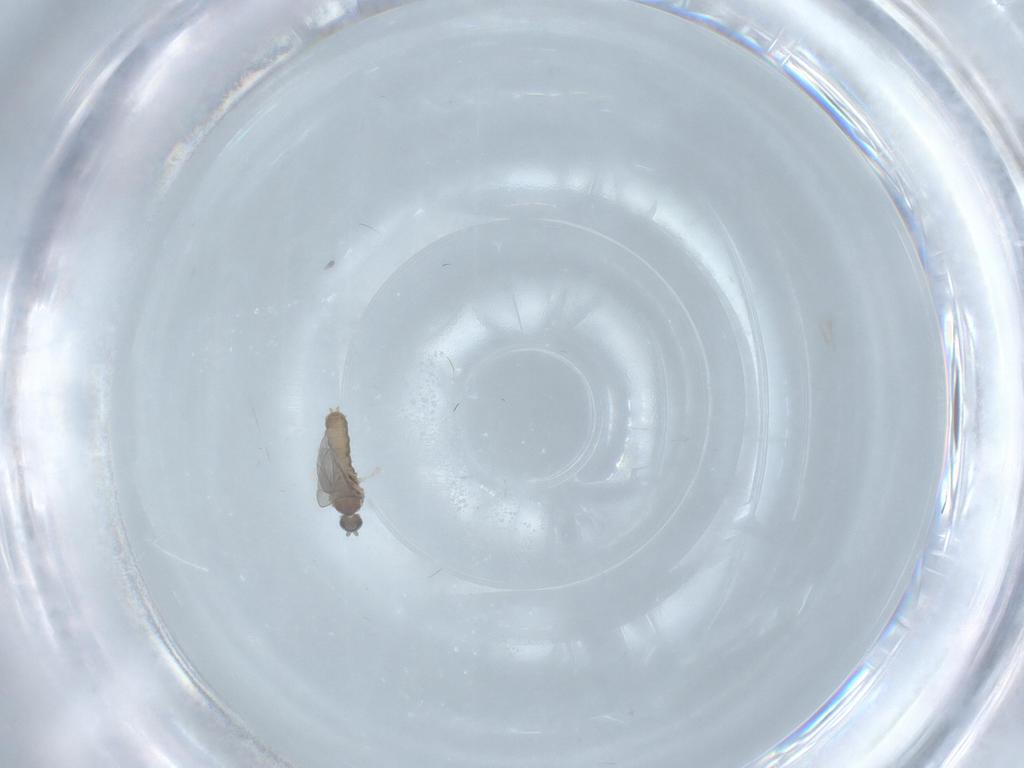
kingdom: Animalia
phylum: Arthropoda
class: Insecta
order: Diptera
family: Cecidomyiidae
